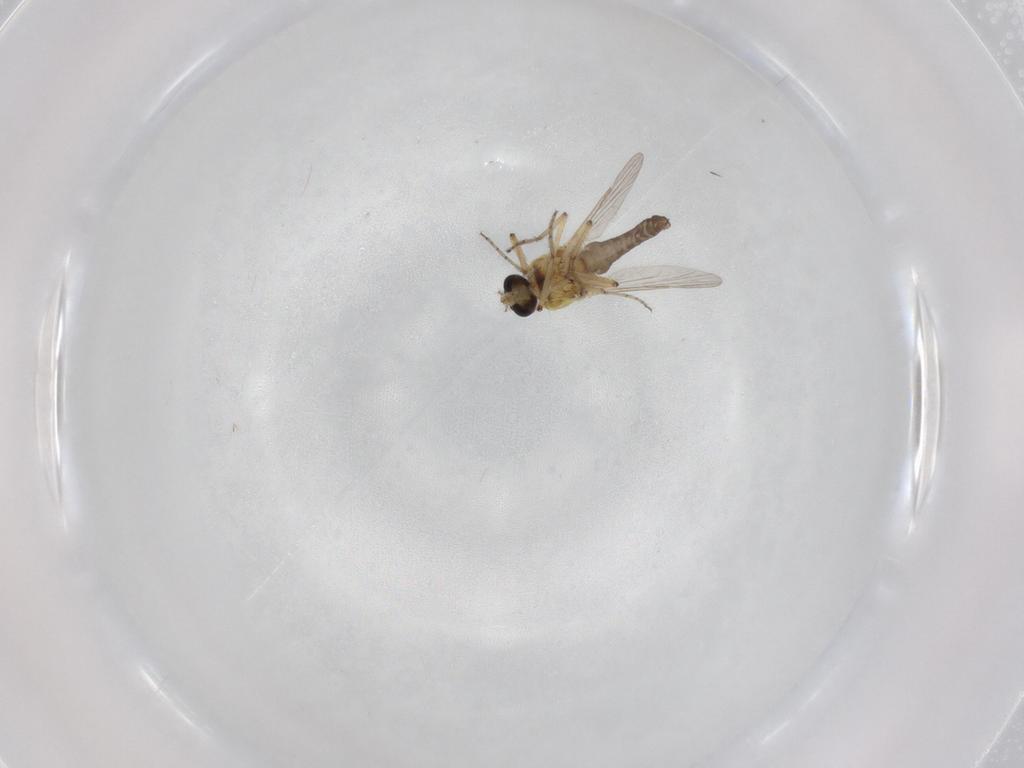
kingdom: Animalia
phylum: Arthropoda
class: Insecta
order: Diptera
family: Ceratopogonidae
